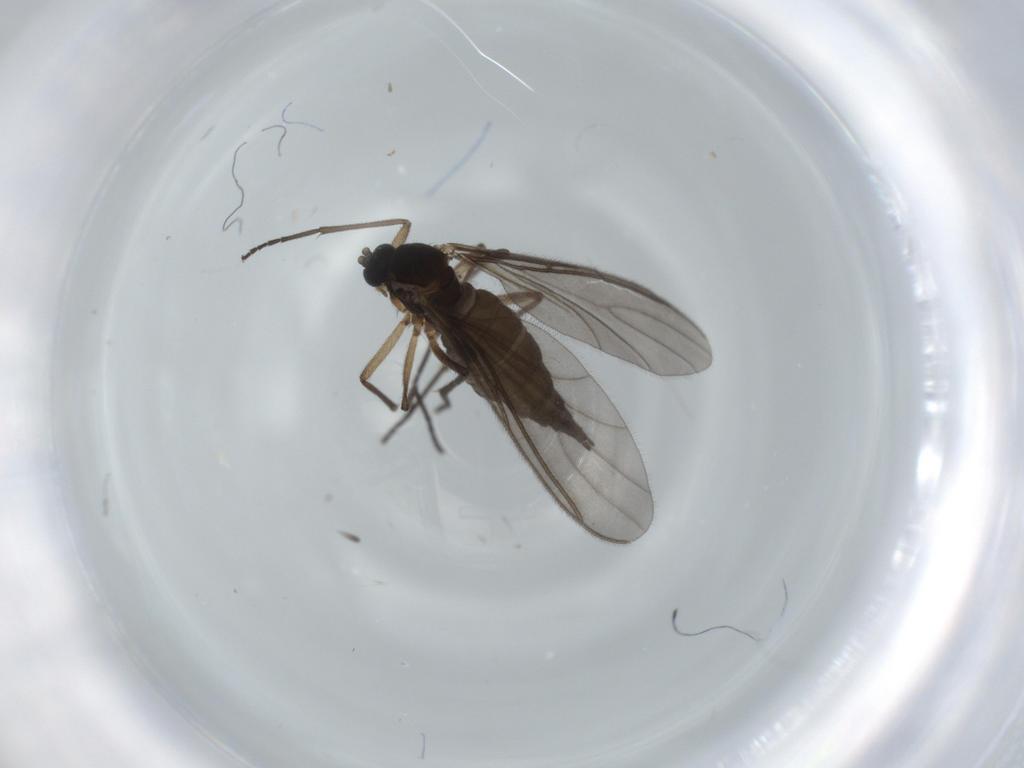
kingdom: Animalia
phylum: Arthropoda
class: Insecta
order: Diptera
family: Sciaridae
